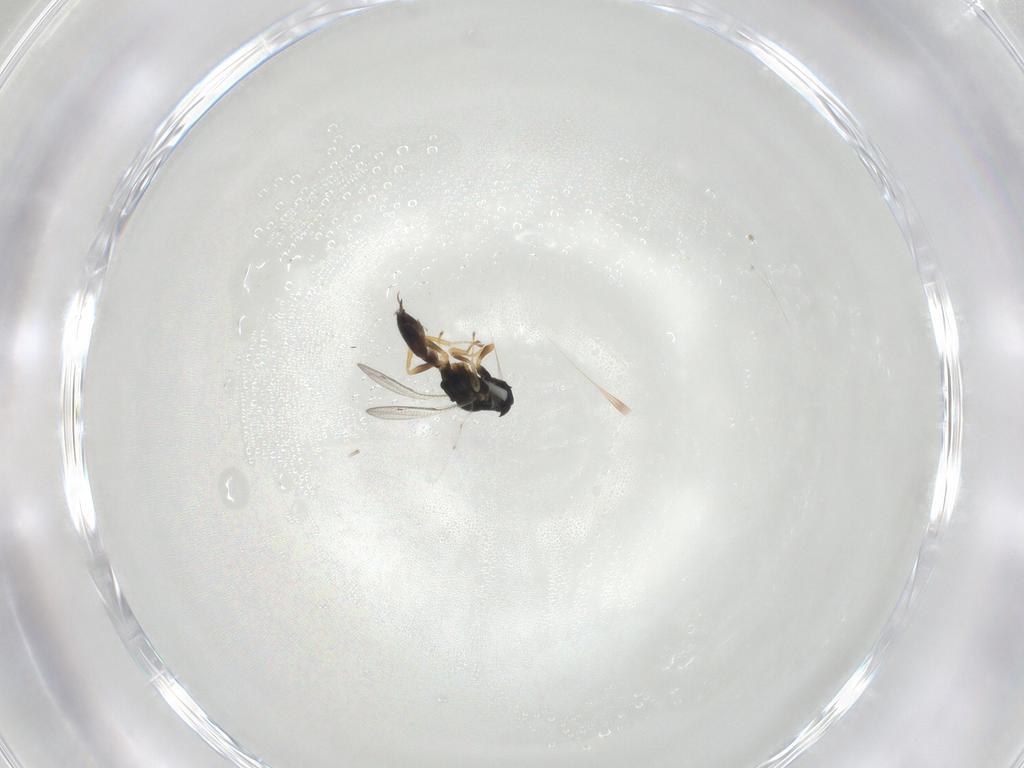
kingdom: Animalia
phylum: Arthropoda
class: Insecta
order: Hymenoptera
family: Pteromalidae
